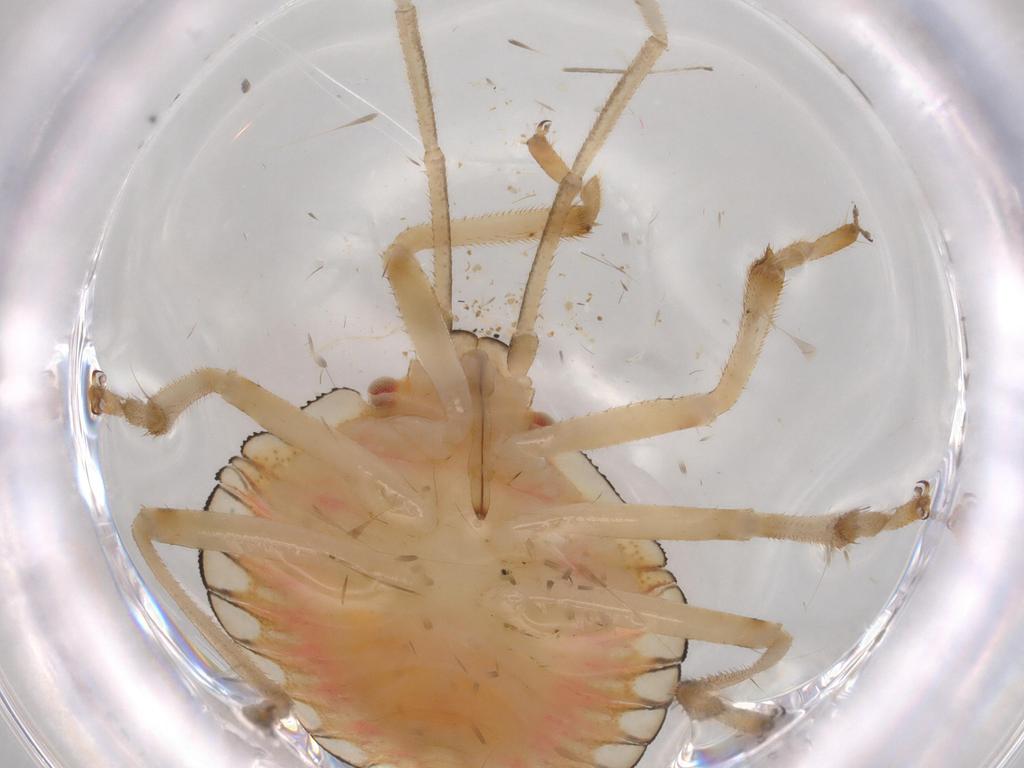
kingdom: Animalia
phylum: Arthropoda
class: Insecta
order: Hemiptera
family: Pentatomidae
